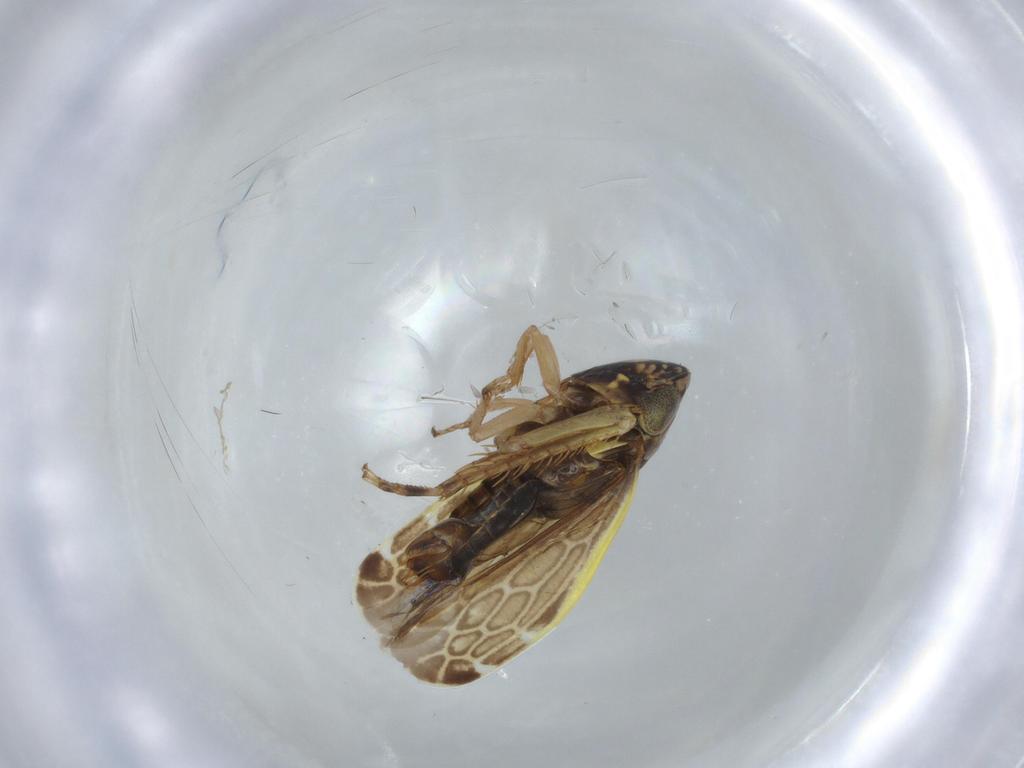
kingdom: Animalia
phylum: Arthropoda
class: Insecta
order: Hemiptera
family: Cicadellidae
